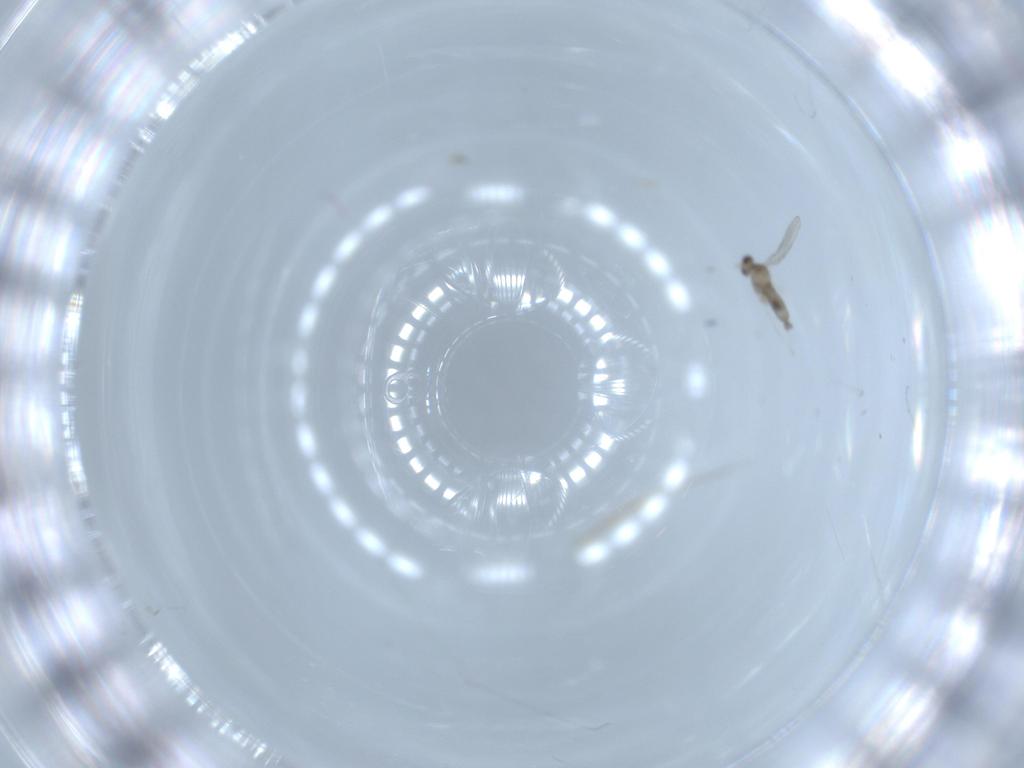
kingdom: Animalia
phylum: Arthropoda
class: Insecta
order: Diptera
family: Cecidomyiidae
